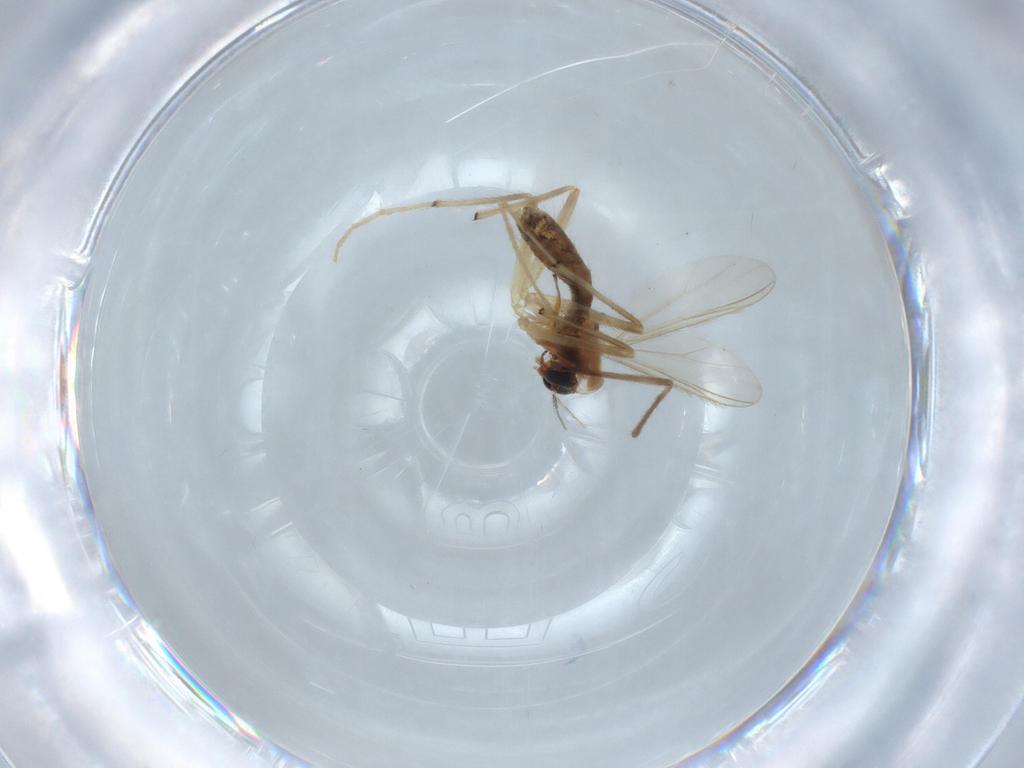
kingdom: Animalia
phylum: Arthropoda
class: Insecta
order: Diptera
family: Chironomidae
